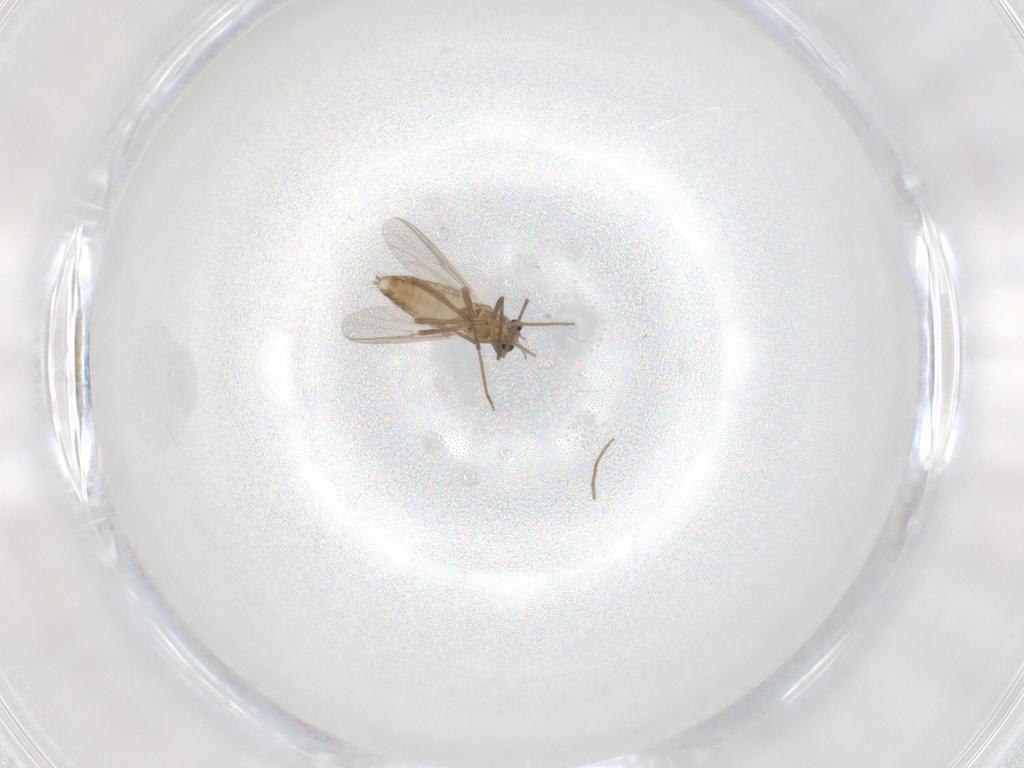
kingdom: Animalia
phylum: Arthropoda
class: Insecta
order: Diptera
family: Chironomidae
